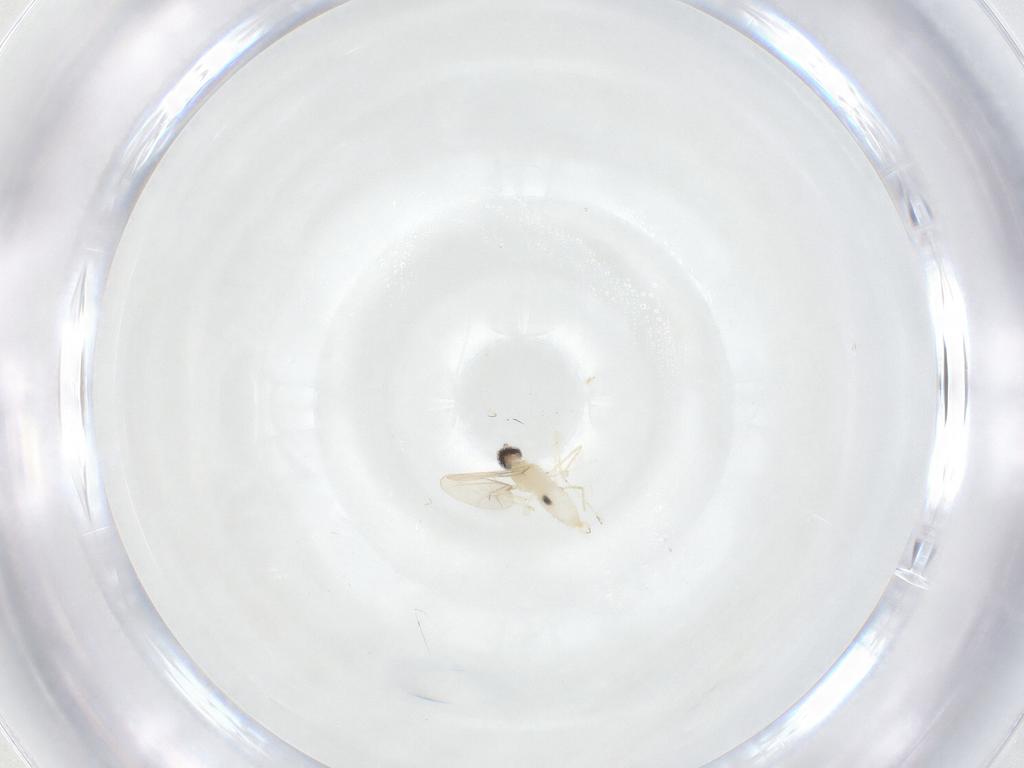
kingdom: Animalia
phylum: Arthropoda
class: Insecta
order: Diptera
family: Cecidomyiidae
